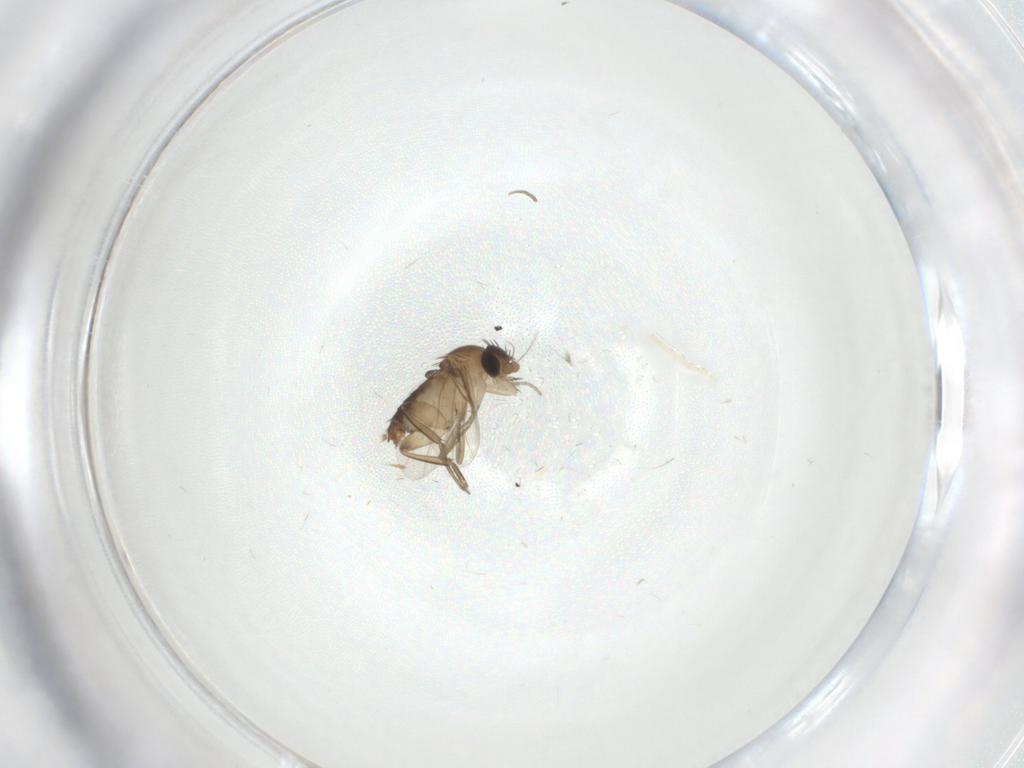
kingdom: Animalia
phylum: Arthropoda
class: Insecta
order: Diptera
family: Phoridae
